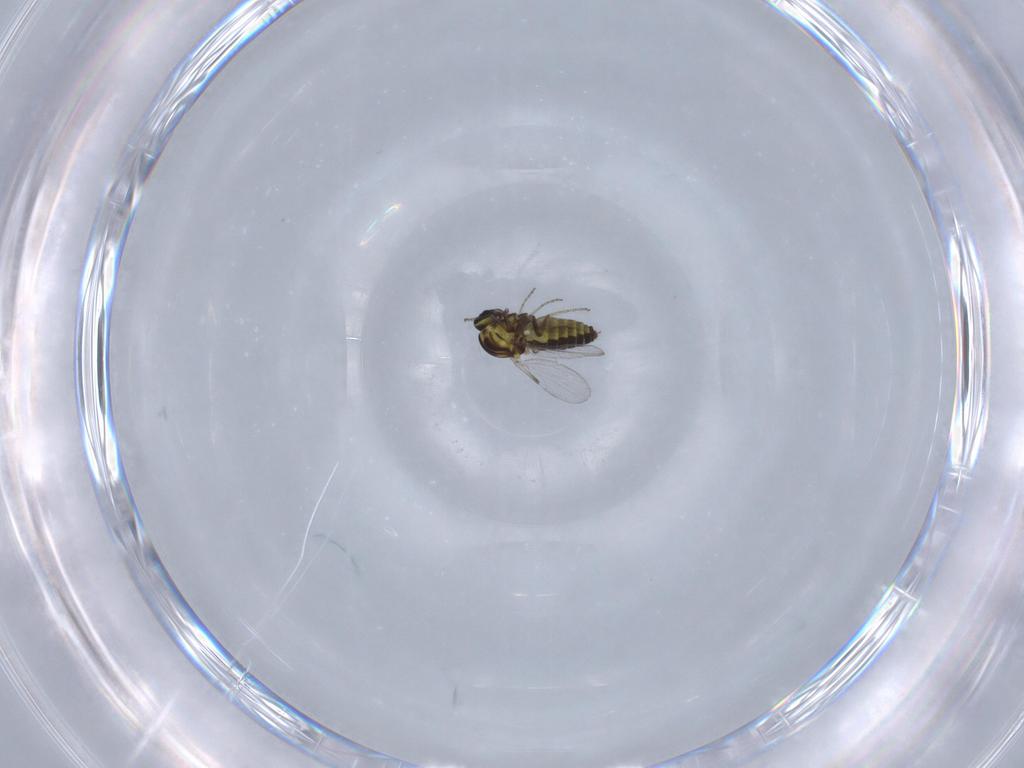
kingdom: Animalia
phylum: Arthropoda
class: Insecta
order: Diptera
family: Ceratopogonidae
